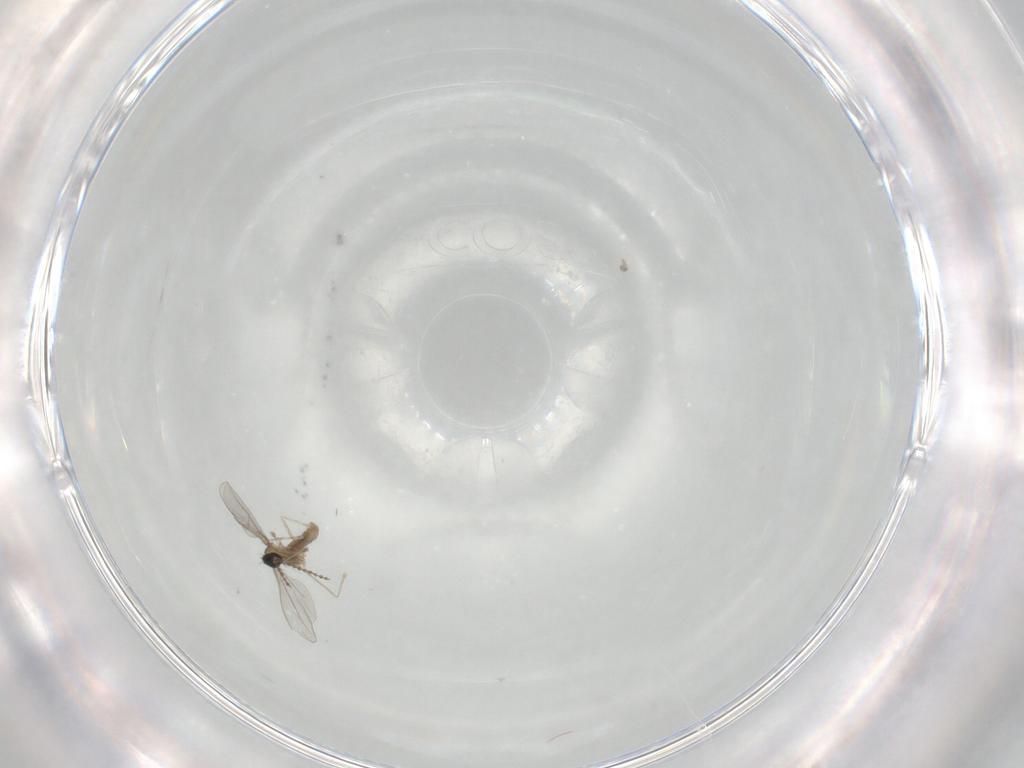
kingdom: Animalia
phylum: Arthropoda
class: Insecta
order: Diptera
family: Cecidomyiidae
